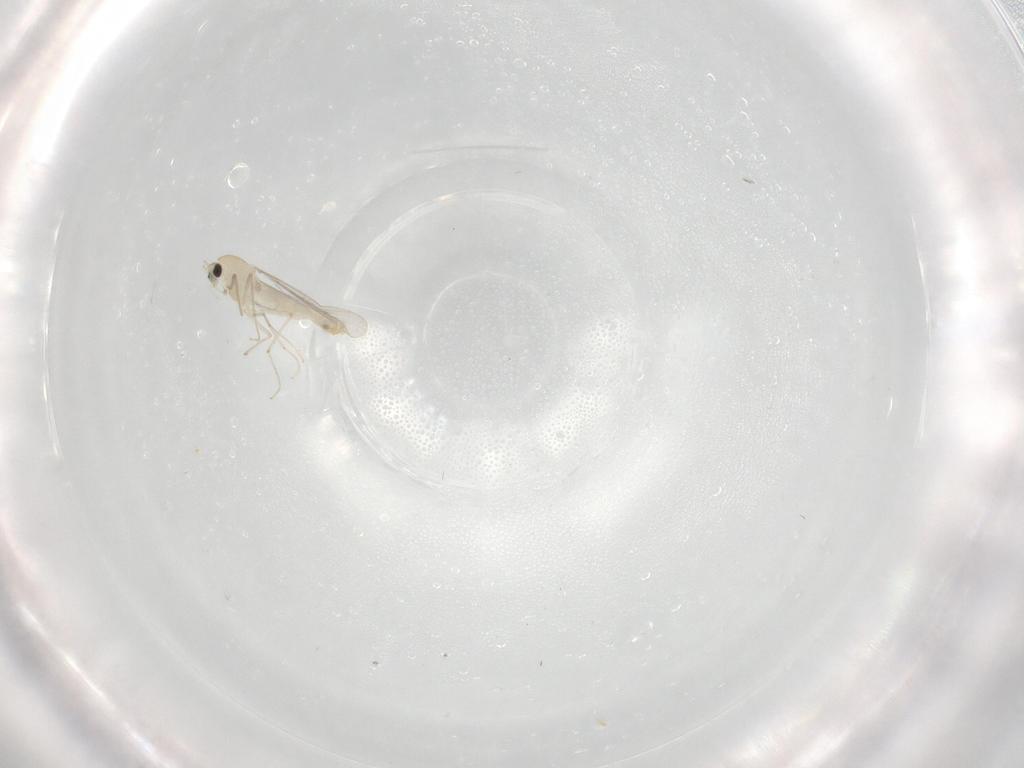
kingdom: Animalia
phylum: Arthropoda
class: Insecta
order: Diptera
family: Chironomidae
